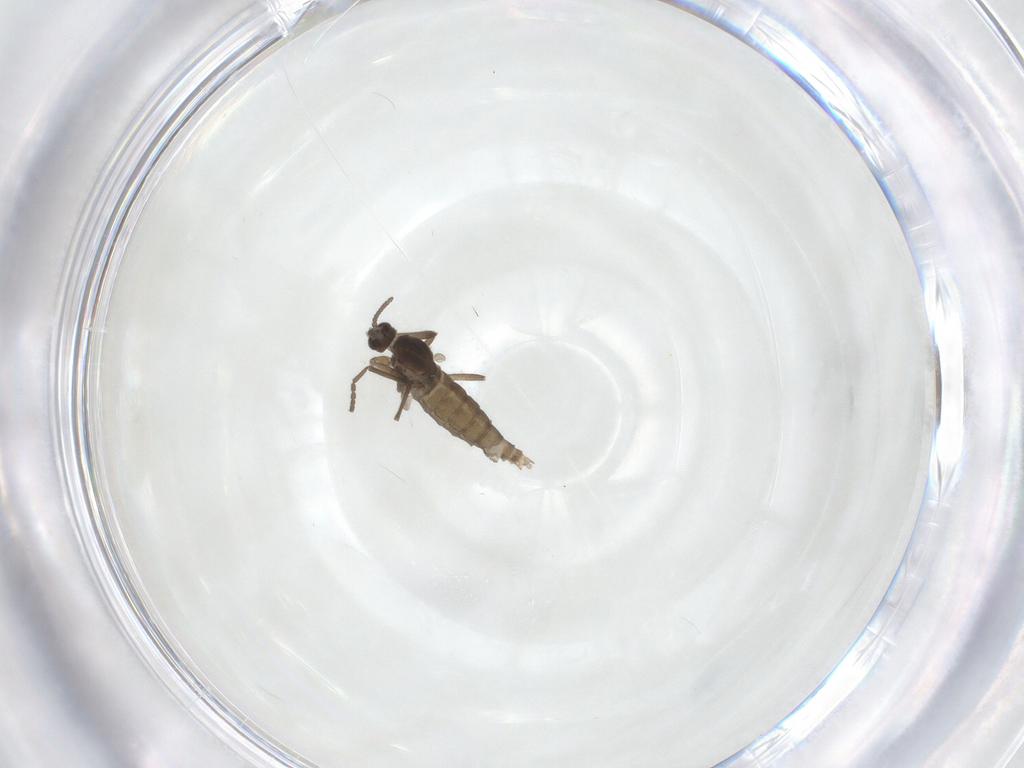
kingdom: Animalia
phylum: Arthropoda
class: Insecta
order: Diptera
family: Cecidomyiidae
